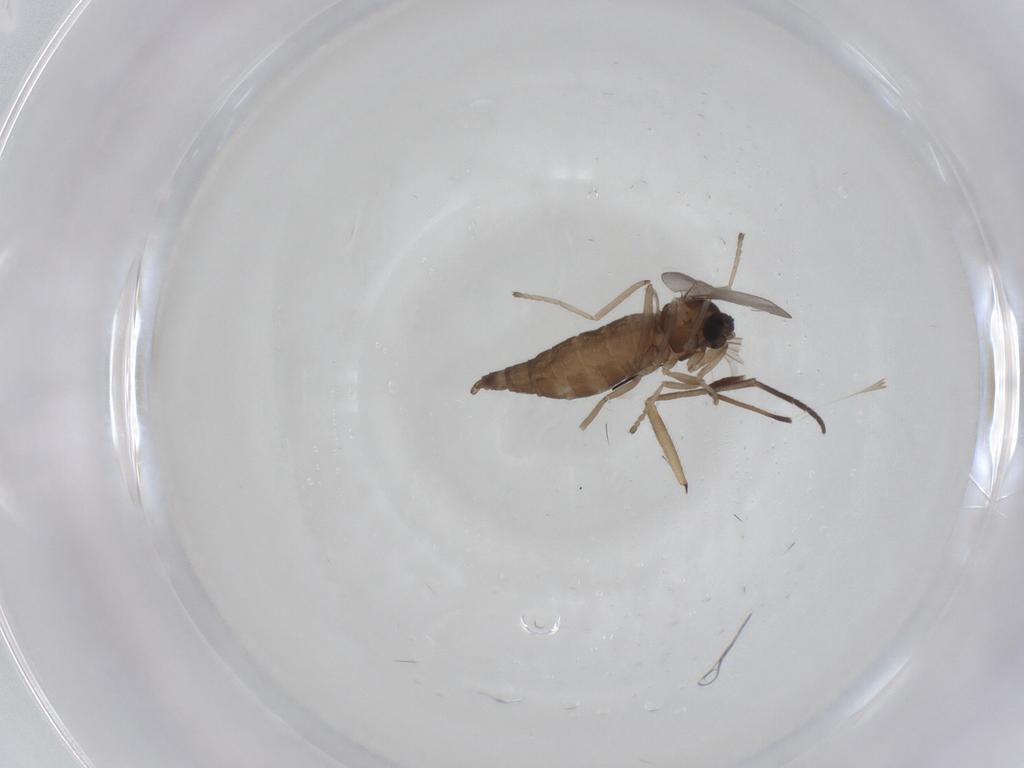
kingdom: Animalia
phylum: Arthropoda
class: Insecta
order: Diptera
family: Cecidomyiidae
